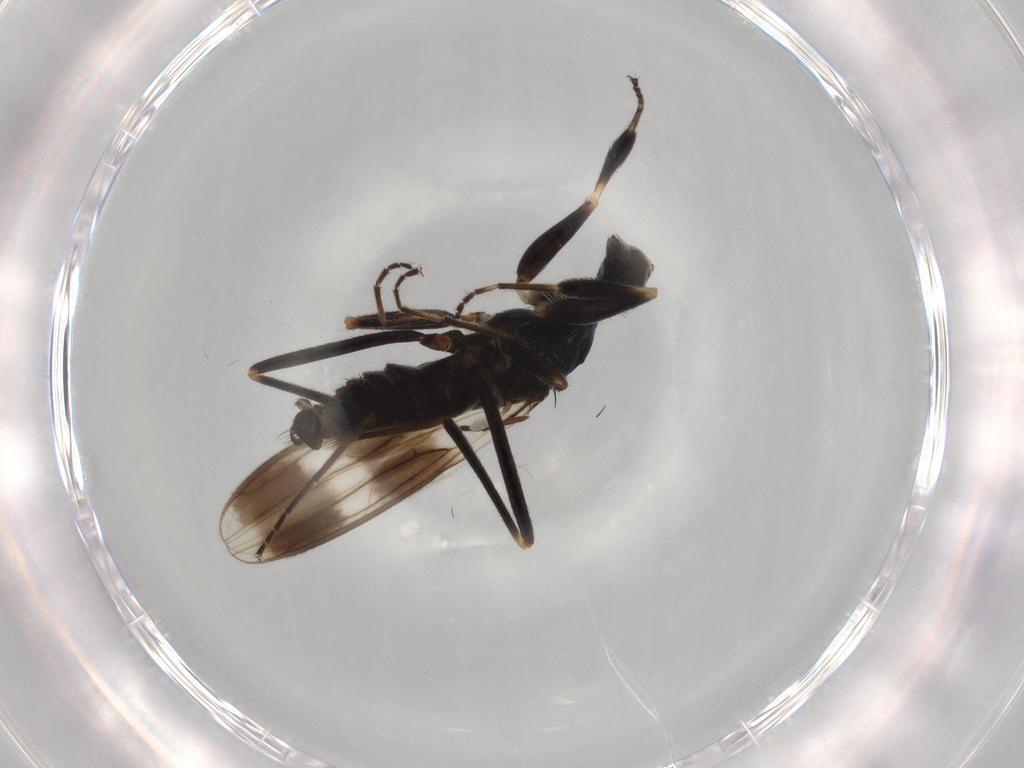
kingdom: Animalia
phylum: Arthropoda
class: Insecta
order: Diptera
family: Hybotidae
